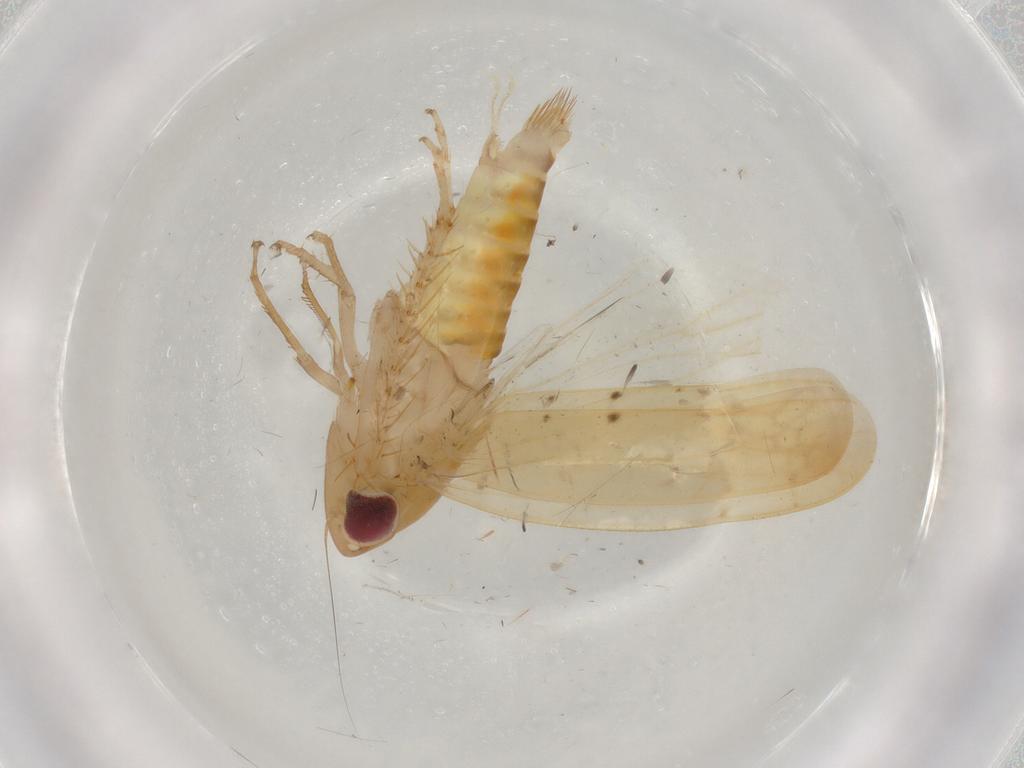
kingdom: Animalia
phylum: Arthropoda
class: Insecta
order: Hemiptera
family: Cicadellidae
